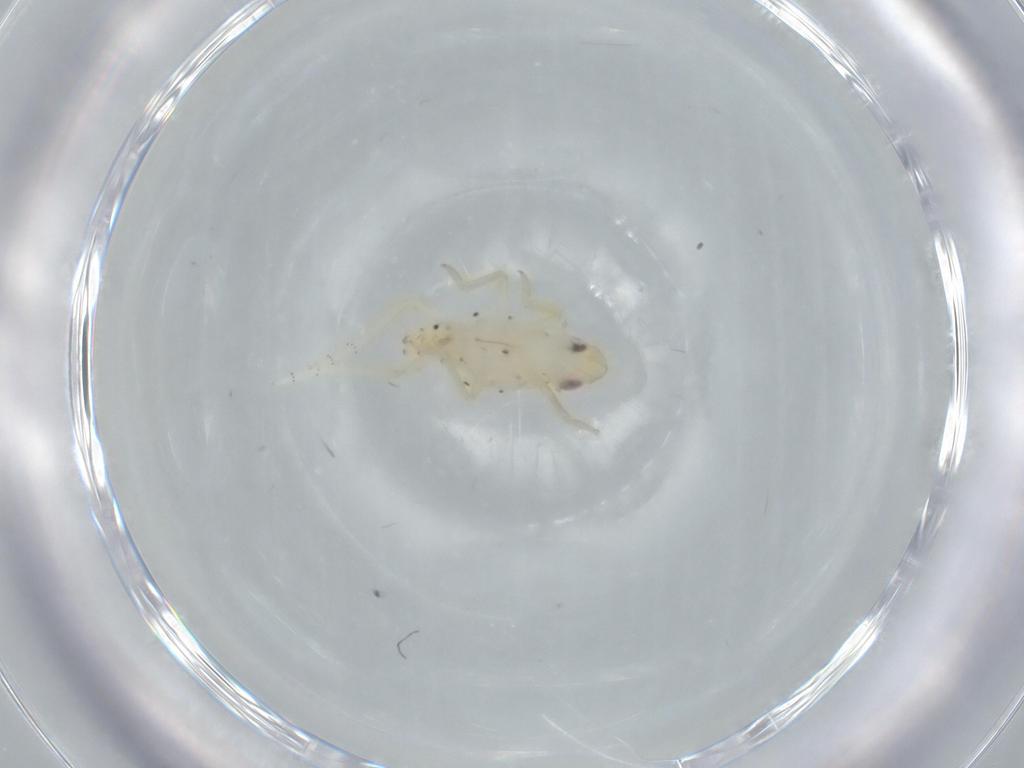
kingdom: Animalia
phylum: Arthropoda
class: Insecta
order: Hemiptera
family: Tropiduchidae
